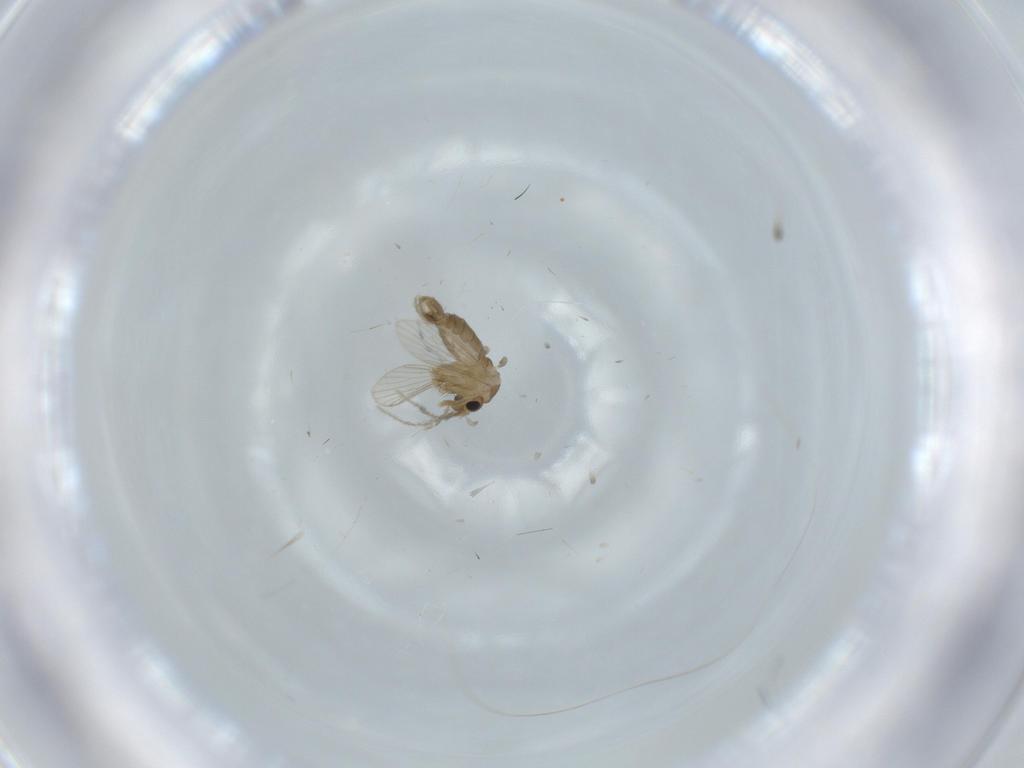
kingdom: Animalia
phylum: Arthropoda
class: Insecta
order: Diptera
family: Psychodidae
